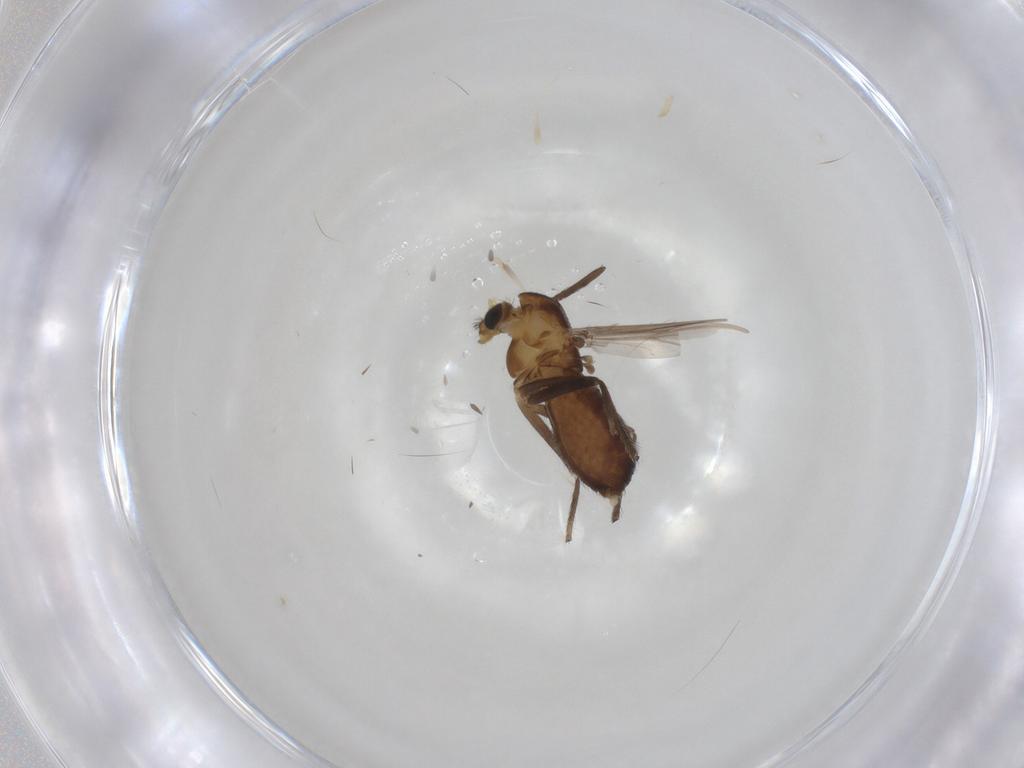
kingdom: Animalia
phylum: Arthropoda
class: Insecta
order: Diptera
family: Chironomidae
